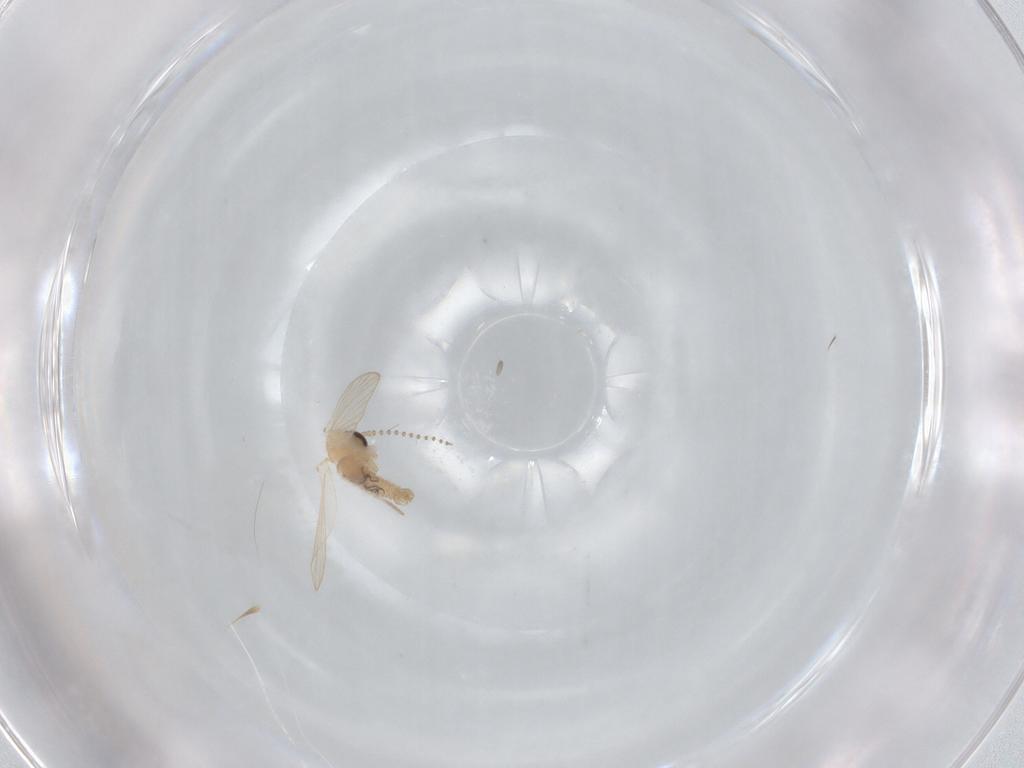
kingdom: Animalia
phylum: Arthropoda
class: Insecta
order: Diptera
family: Psychodidae
